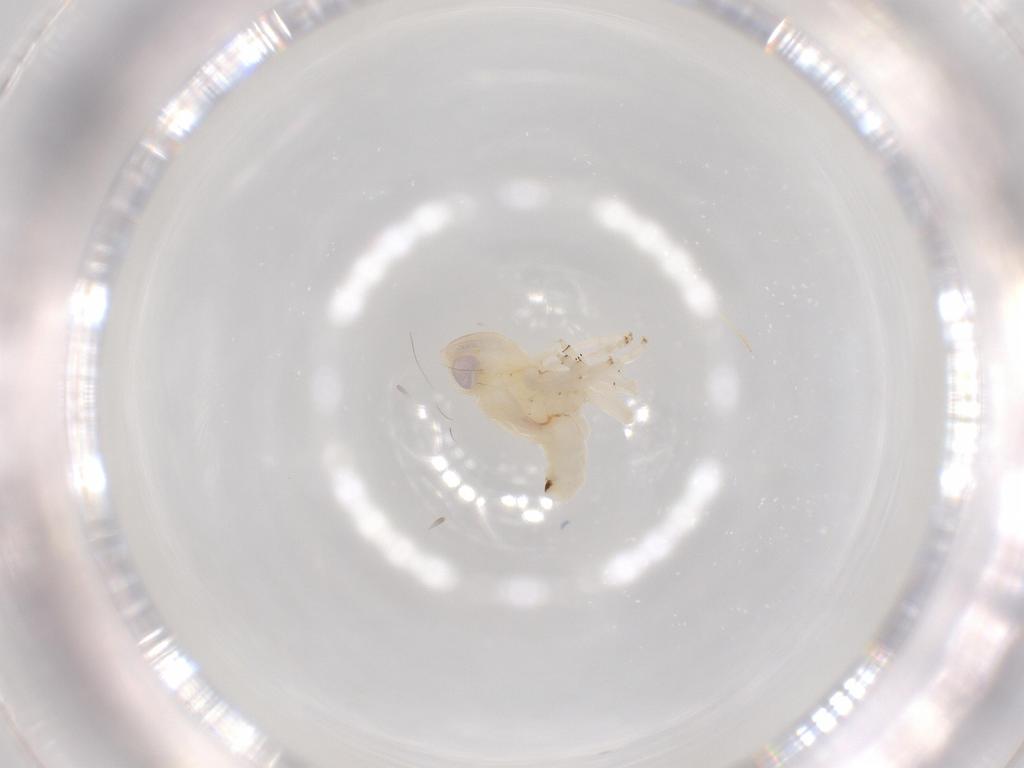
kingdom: Animalia
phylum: Arthropoda
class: Insecta
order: Hemiptera
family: Nogodinidae
